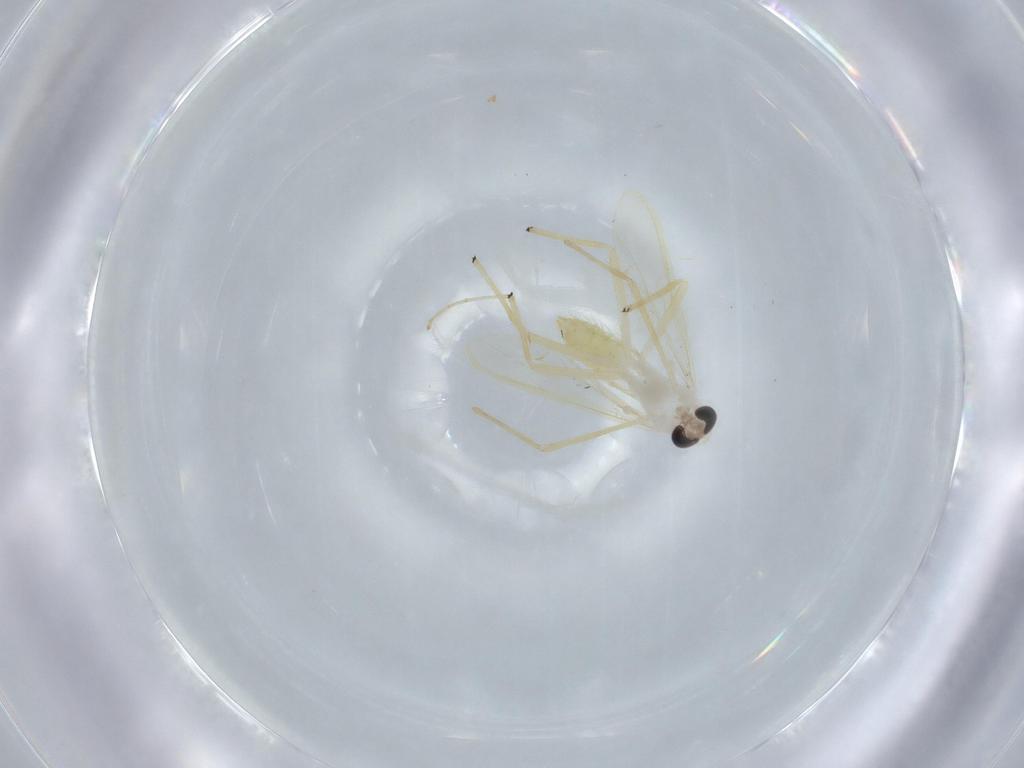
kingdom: Animalia
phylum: Arthropoda
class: Insecta
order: Diptera
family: Chironomidae
